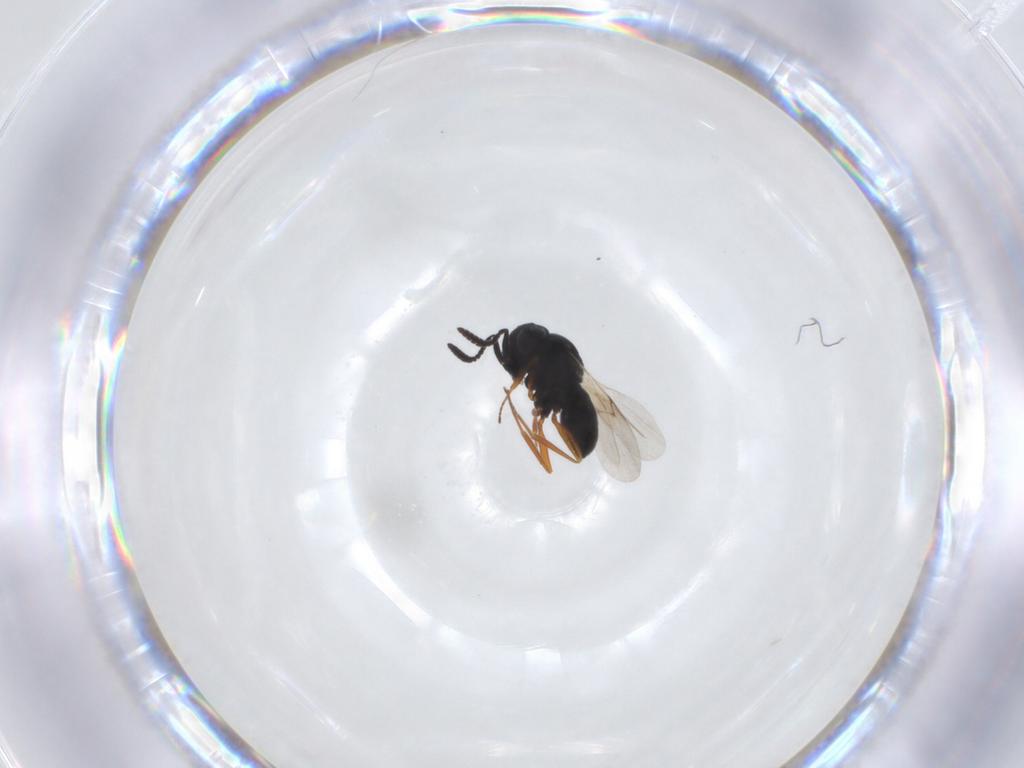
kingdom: Animalia
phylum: Arthropoda
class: Insecta
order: Hymenoptera
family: Scelionidae
